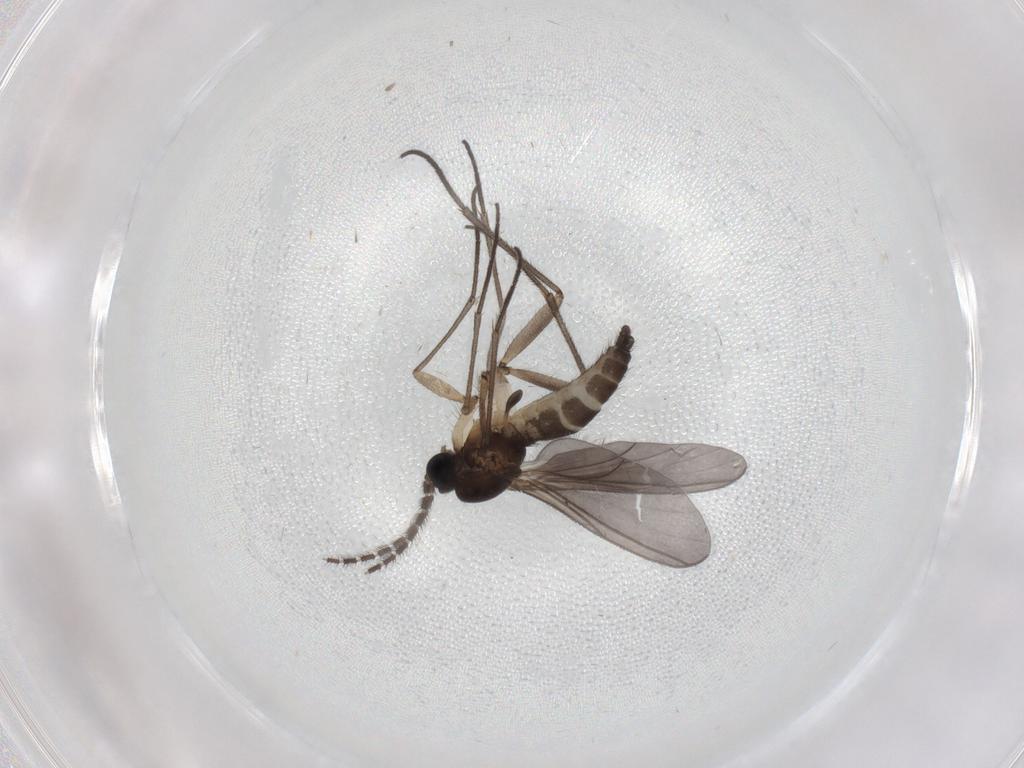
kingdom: Animalia
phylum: Arthropoda
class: Insecta
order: Diptera
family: Sciaridae
